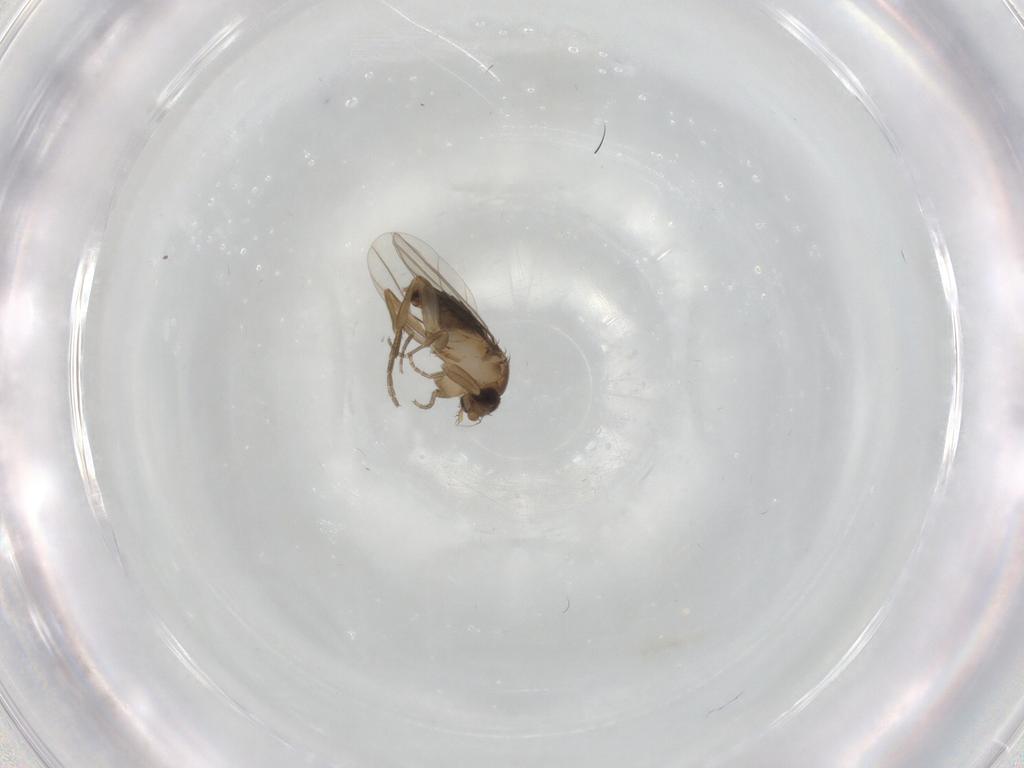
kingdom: Animalia
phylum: Arthropoda
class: Insecta
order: Diptera
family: Phoridae
